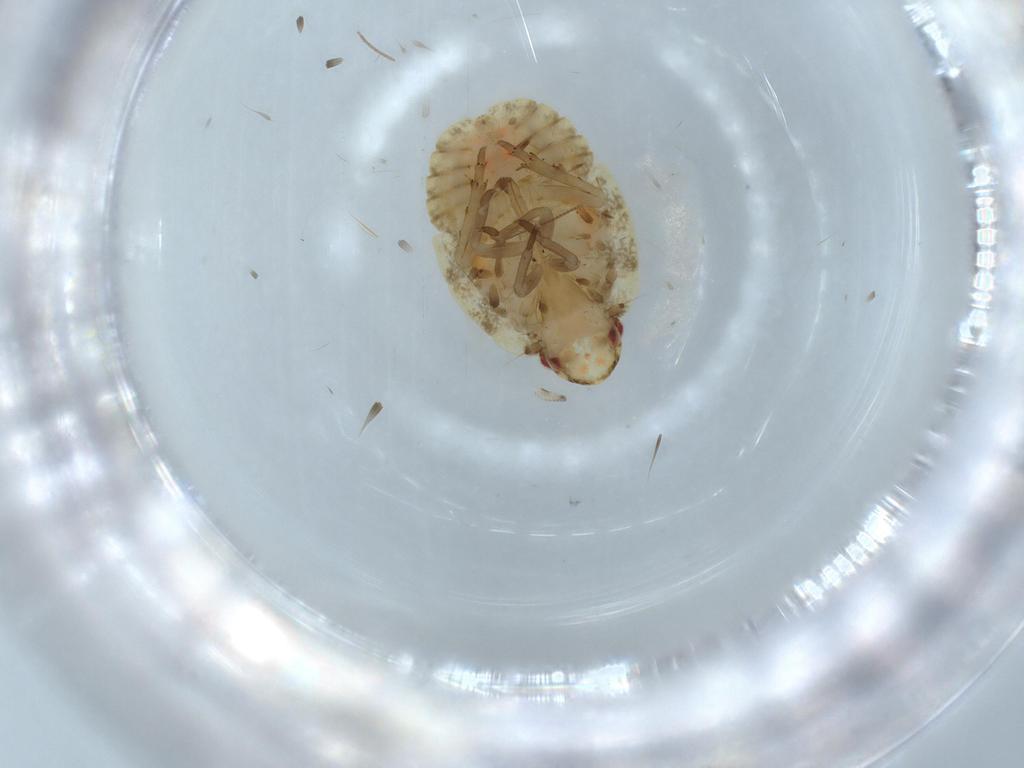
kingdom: Animalia
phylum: Arthropoda
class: Insecta
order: Hemiptera
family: Flatidae
